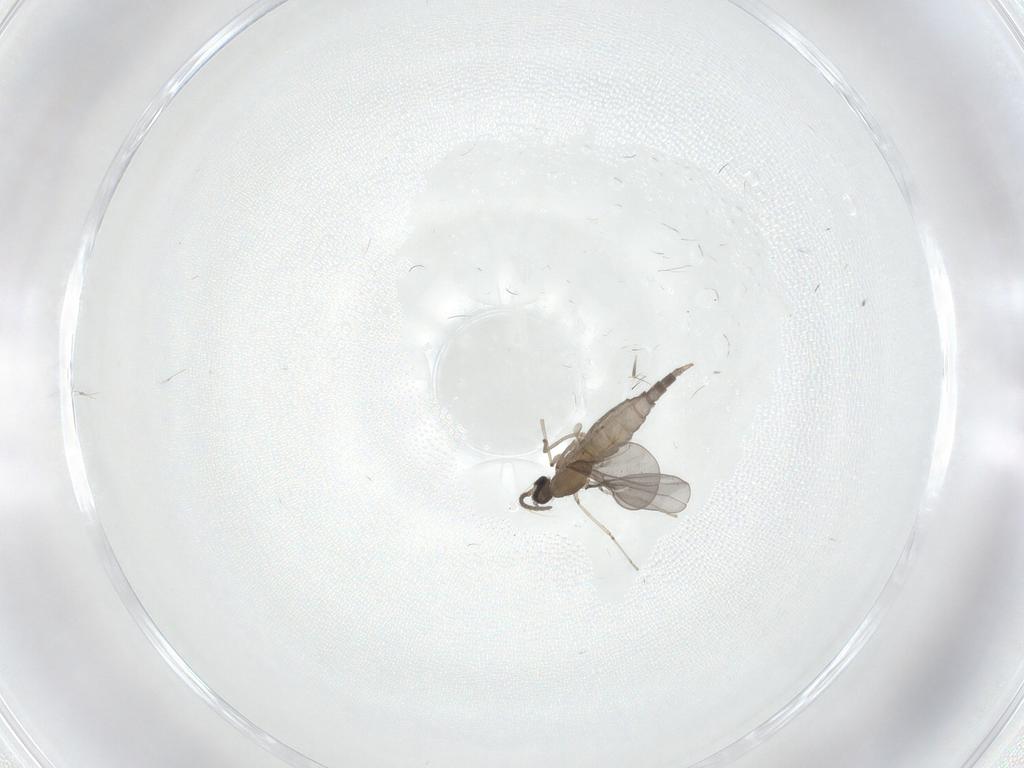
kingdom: Animalia
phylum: Arthropoda
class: Insecta
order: Diptera
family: Cecidomyiidae
